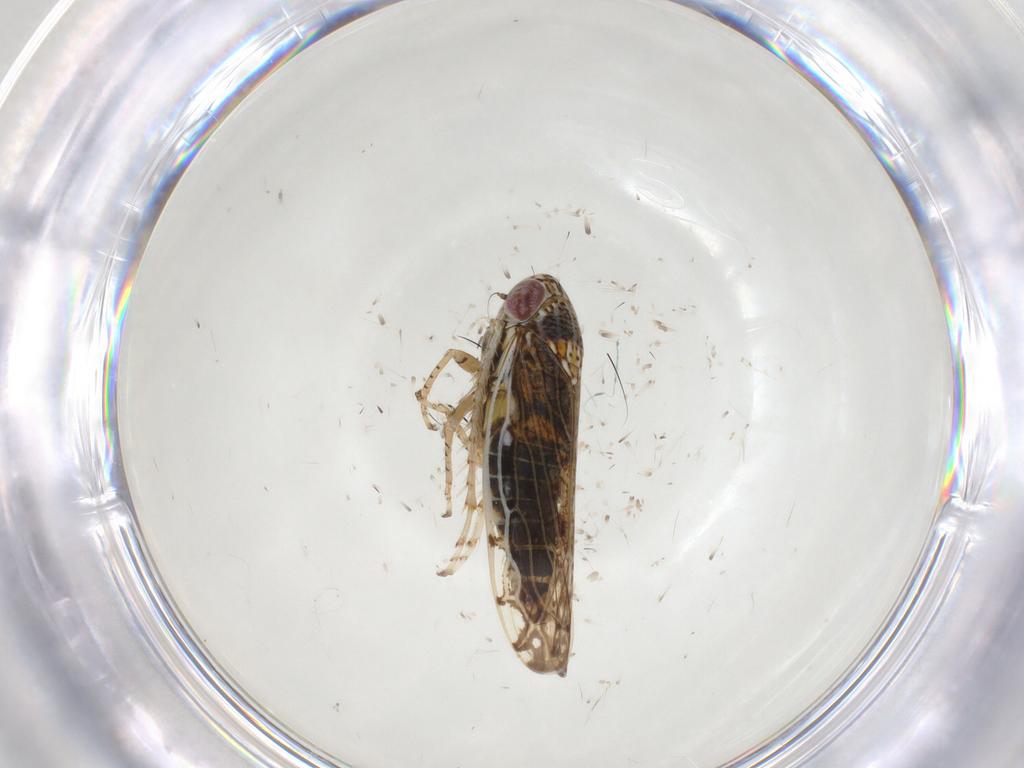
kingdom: Animalia
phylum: Arthropoda
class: Insecta
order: Hemiptera
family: Cicadellidae
